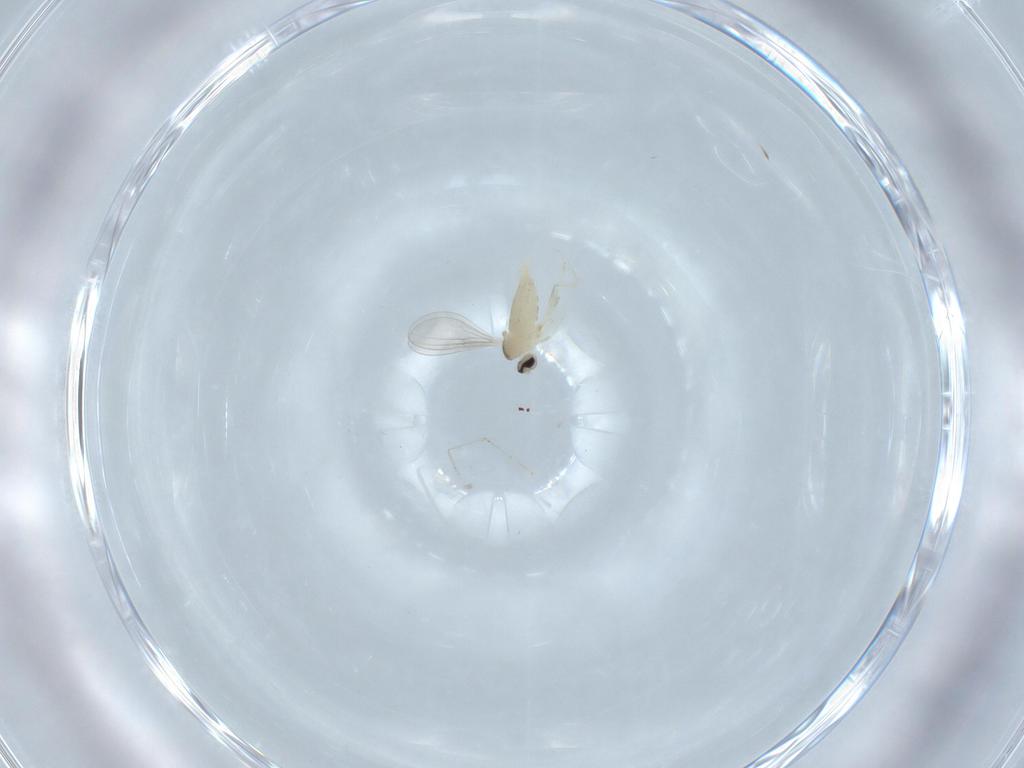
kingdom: Animalia
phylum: Arthropoda
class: Insecta
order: Diptera
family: Cecidomyiidae
